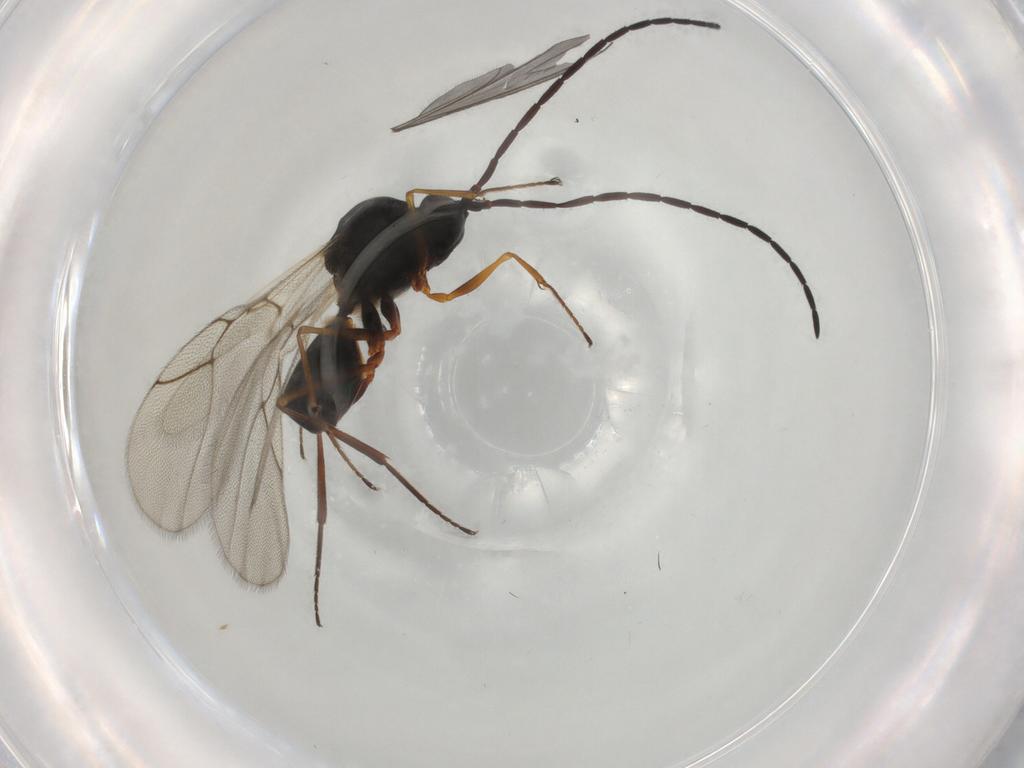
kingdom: Animalia
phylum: Arthropoda
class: Insecta
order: Hymenoptera
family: Figitidae
